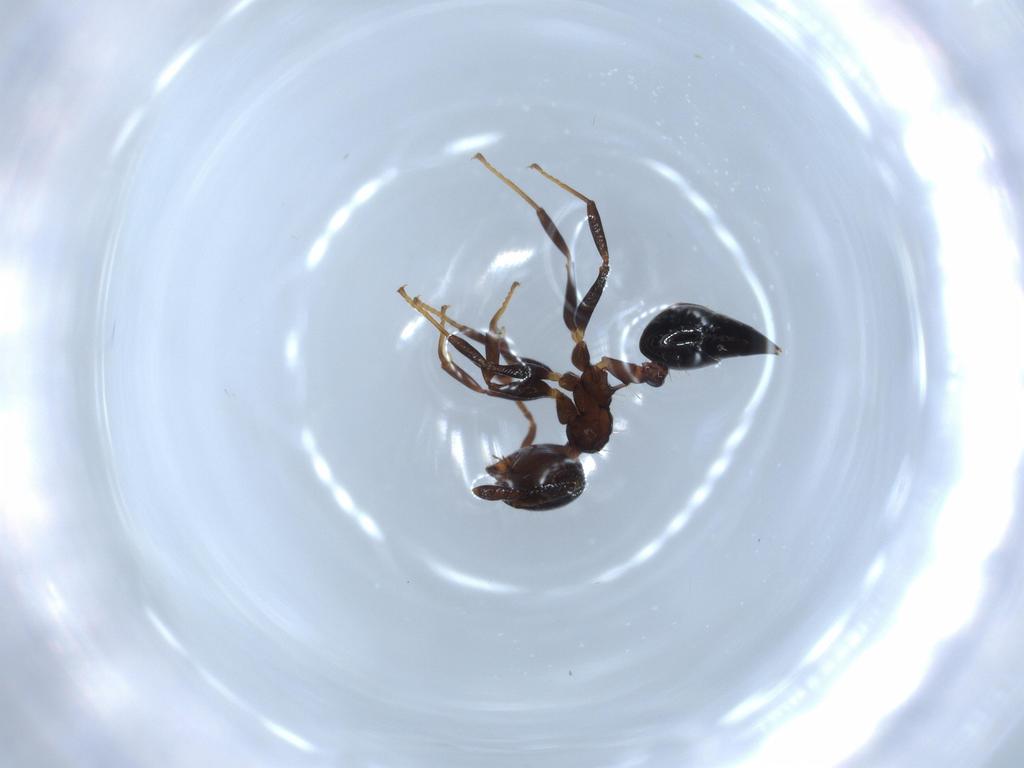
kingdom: Animalia
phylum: Arthropoda
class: Insecta
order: Hymenoptera
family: Formicidae
